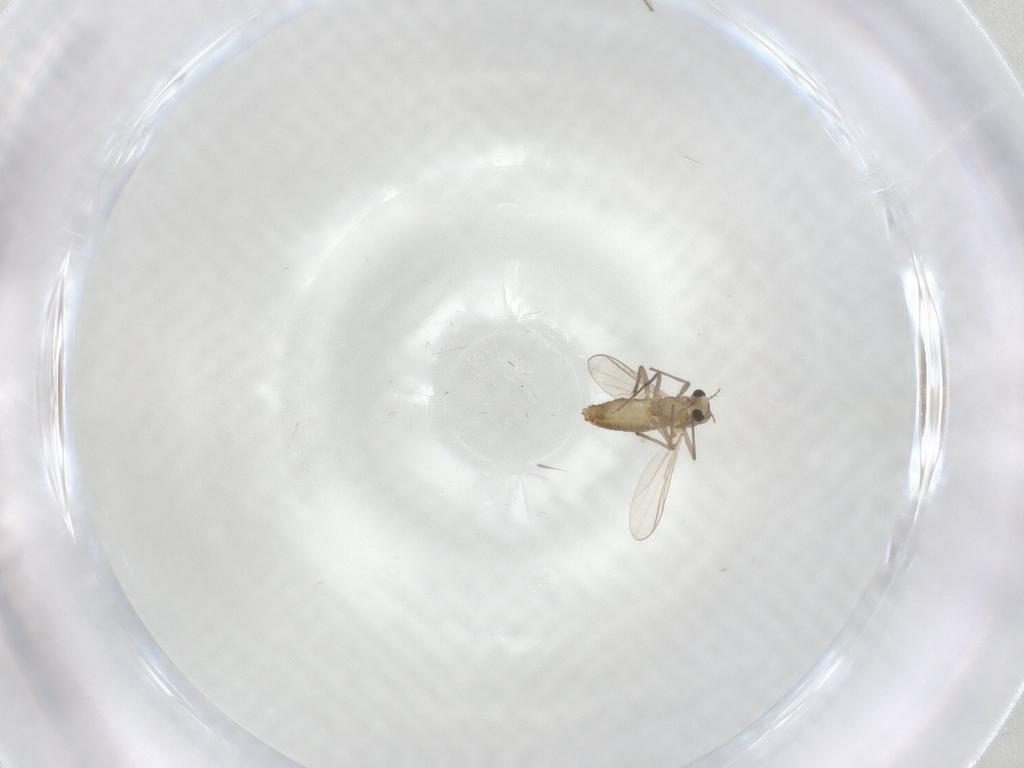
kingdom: Animalia
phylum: Arthropoda
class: Insecta
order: Diptera
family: Chironomidae
